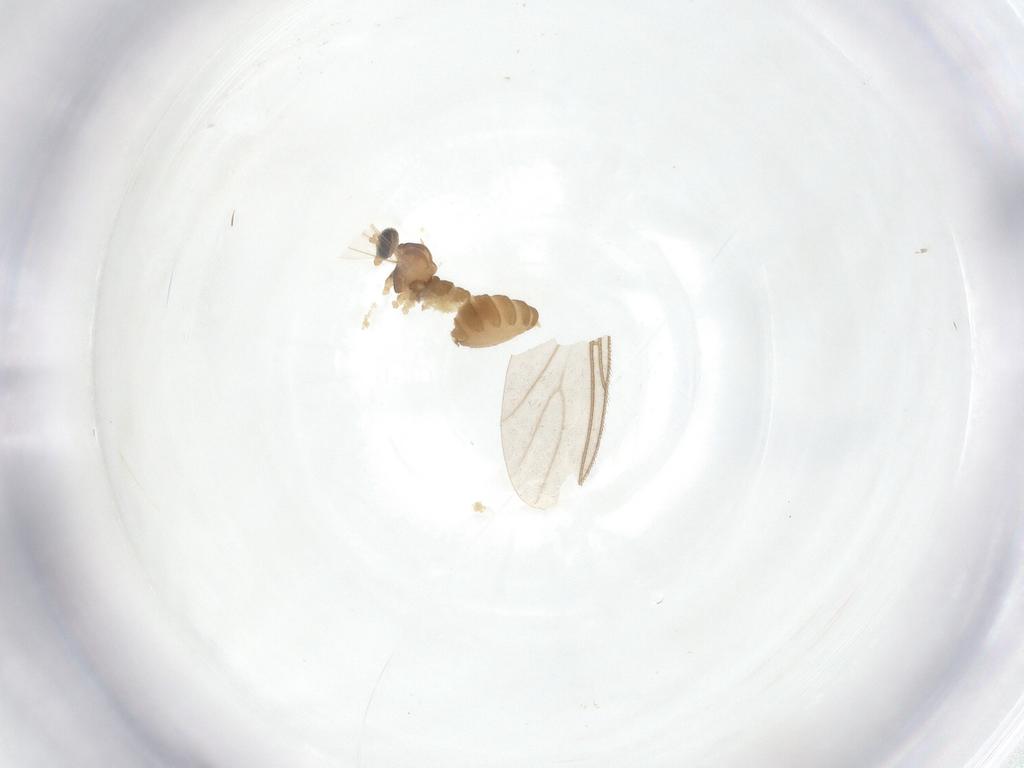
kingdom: Animalia
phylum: Arthropoda
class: Insecta
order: Diptera
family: Cecidomyiidae
